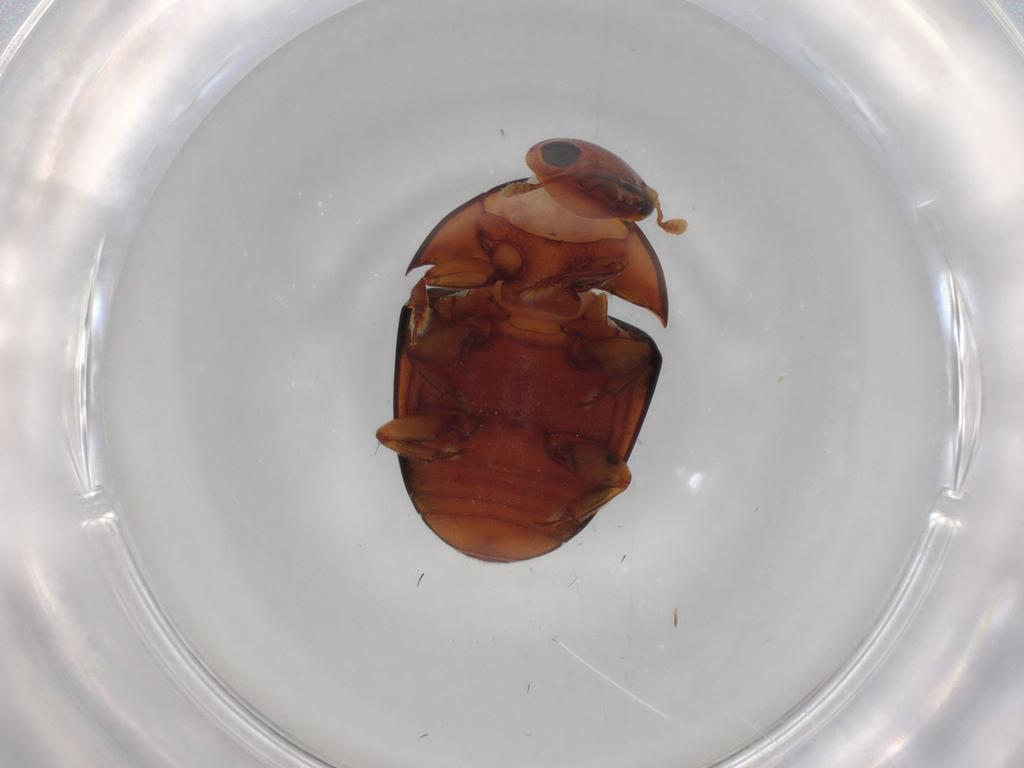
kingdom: Animalia
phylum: Arthropoda
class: Insecta
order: Coleoptera
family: Nitidulidae
